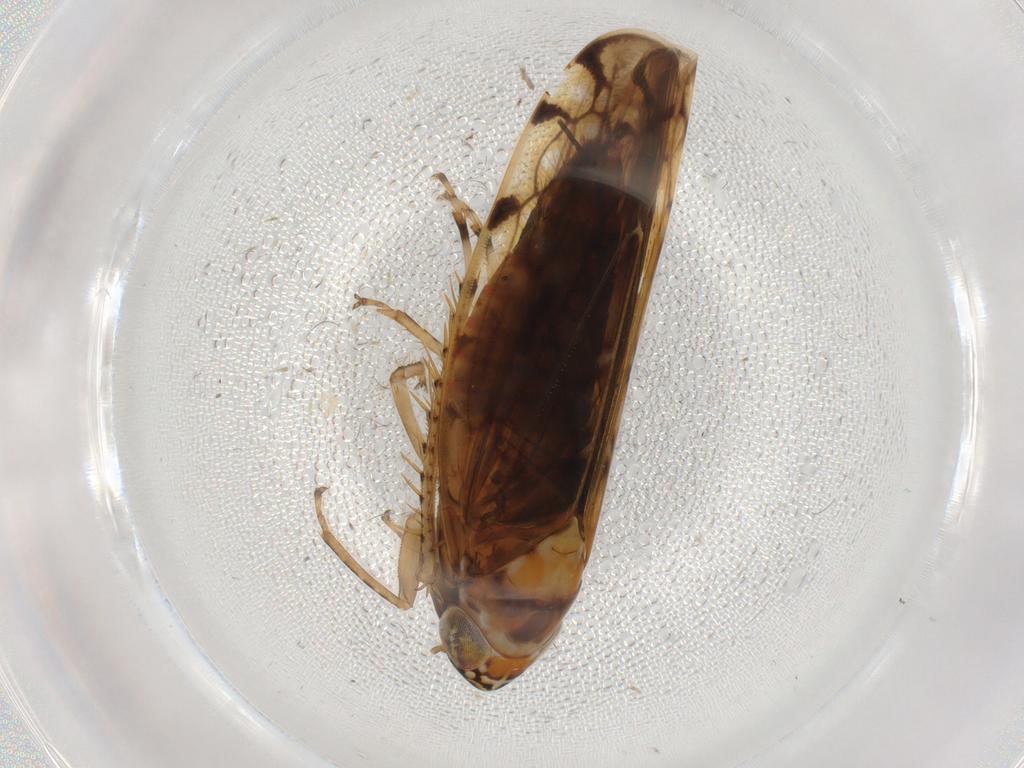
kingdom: Animalia
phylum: Arthropoda
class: Insecta
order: Hemiptera
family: Cicadellidae
